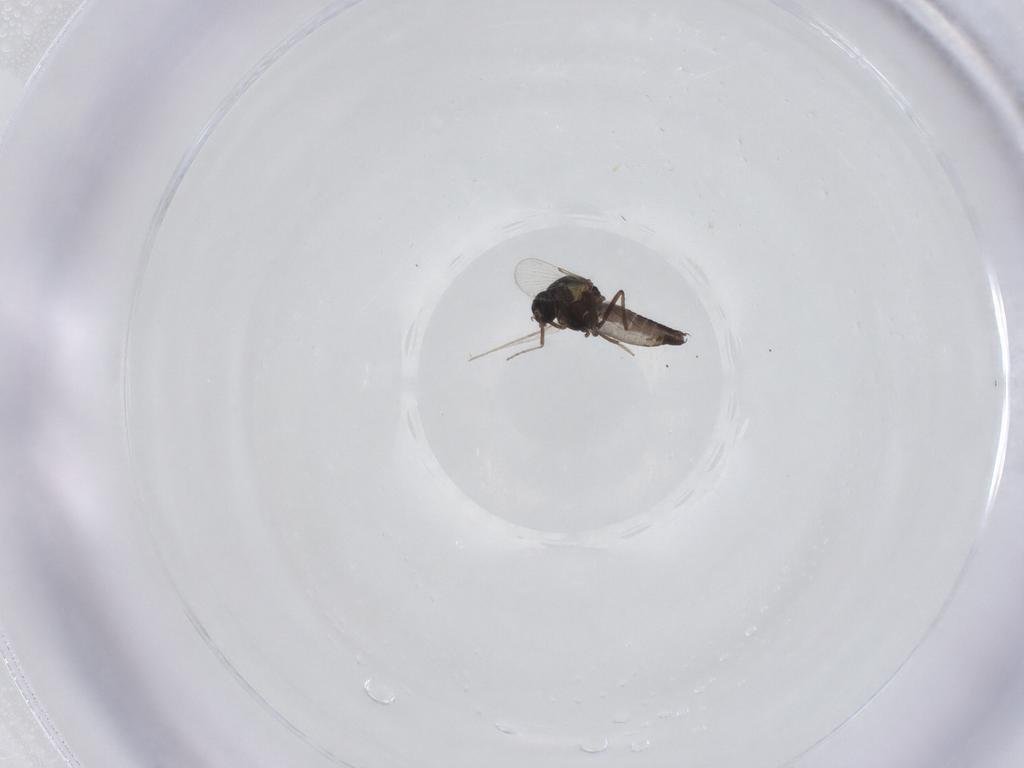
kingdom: Animalia
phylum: Arthropoda
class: Insecta
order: Diptera
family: Ceratopogonidae
